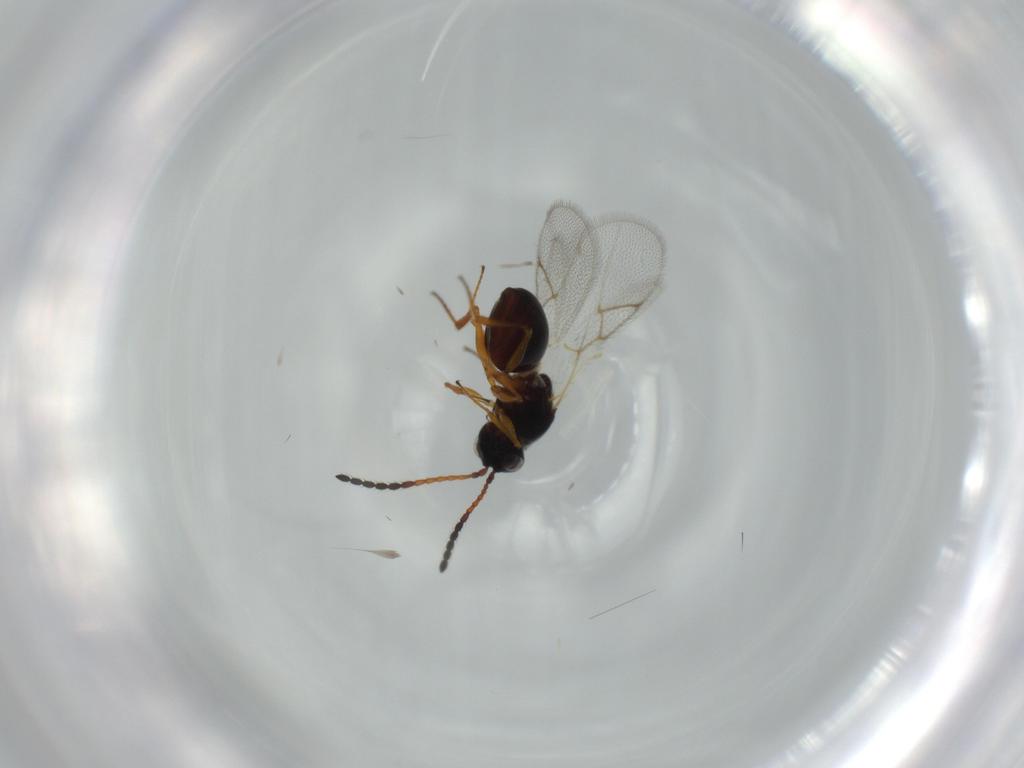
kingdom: Animalia
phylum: Arthropoda
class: Insecta
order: Hymenoptera
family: Figitidae
